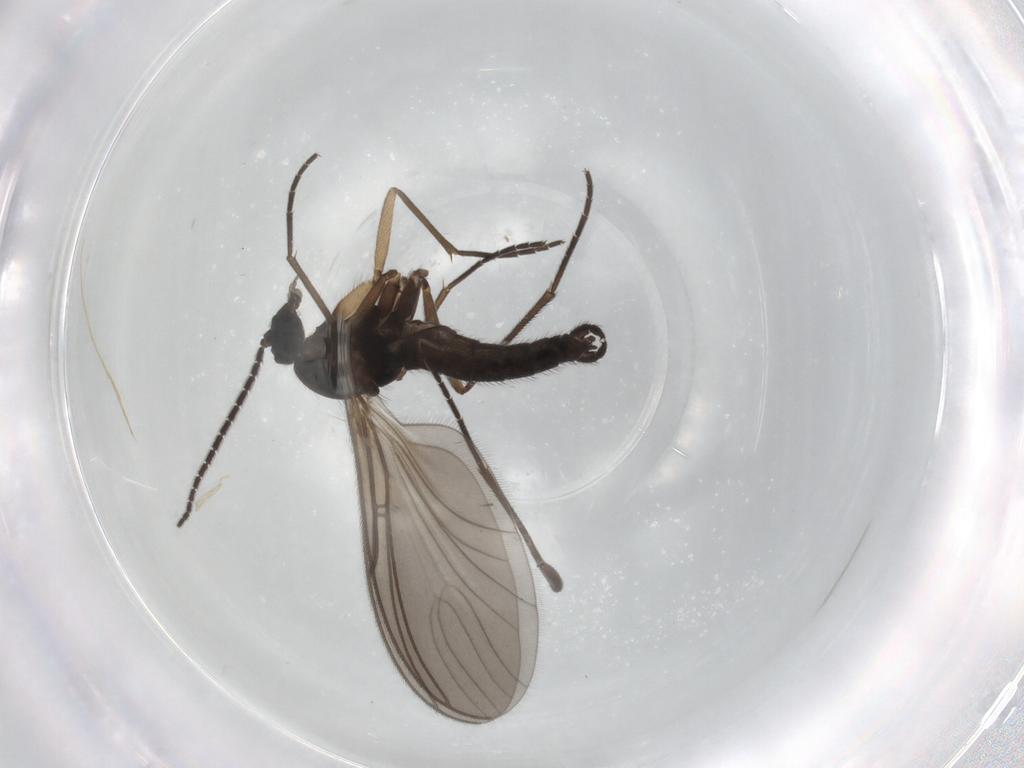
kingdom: Animalia
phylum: Arthropoda
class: Insecta
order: Diptera
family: Sciaridae
